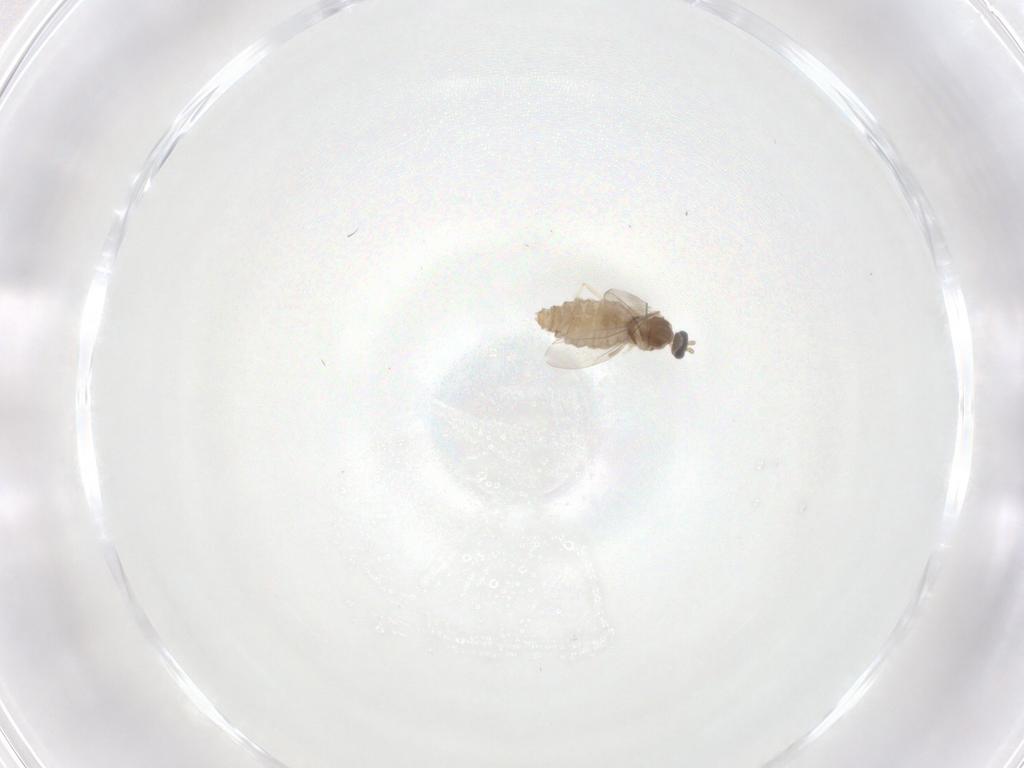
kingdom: Animalia
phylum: Arthropoda
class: Insecta
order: Diptera
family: Cecidomyiidae
